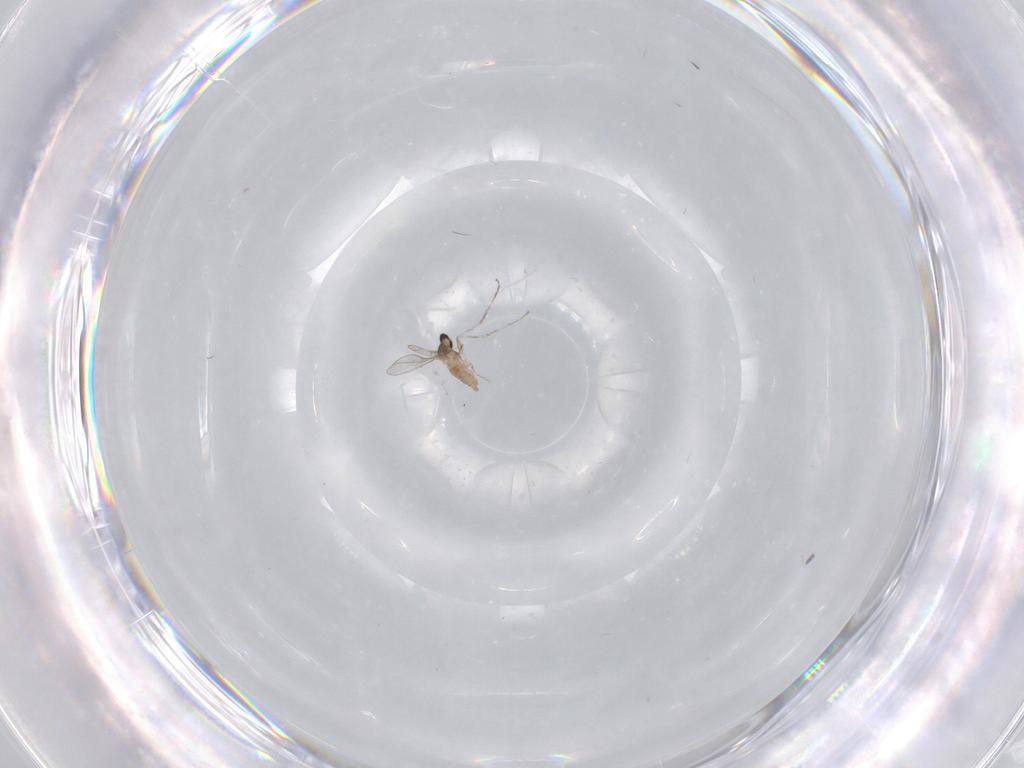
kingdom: Animalia
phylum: Arthropoda
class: Insecta
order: Diptera
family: Cecidomyiidae
